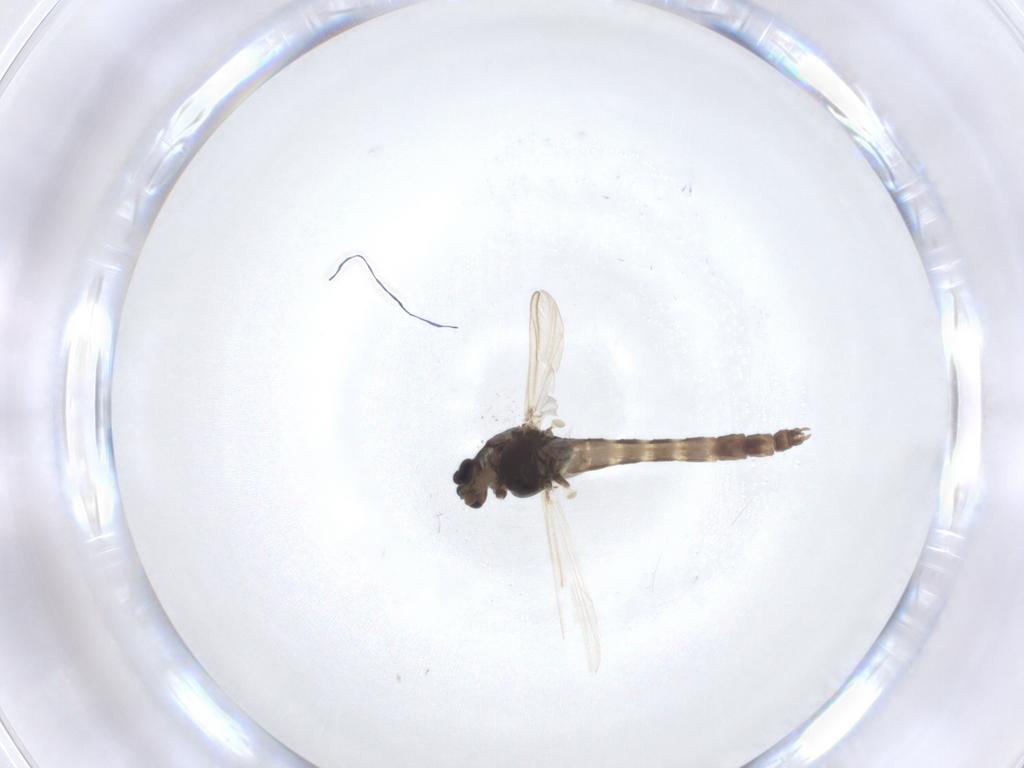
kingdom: Animalia
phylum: Arthropoda
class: Insecta
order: Diptera
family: Chironomidae
